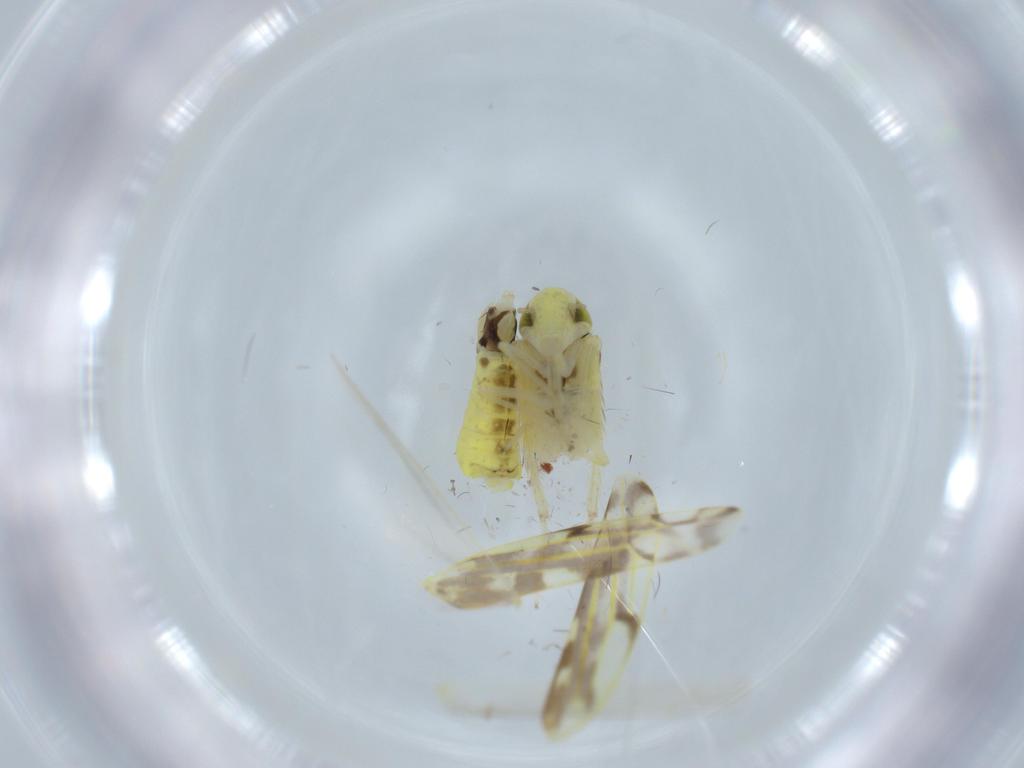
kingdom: Animalia
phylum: Arthropoda
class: Insecta
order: Hemiptera
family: Cicadellidae
